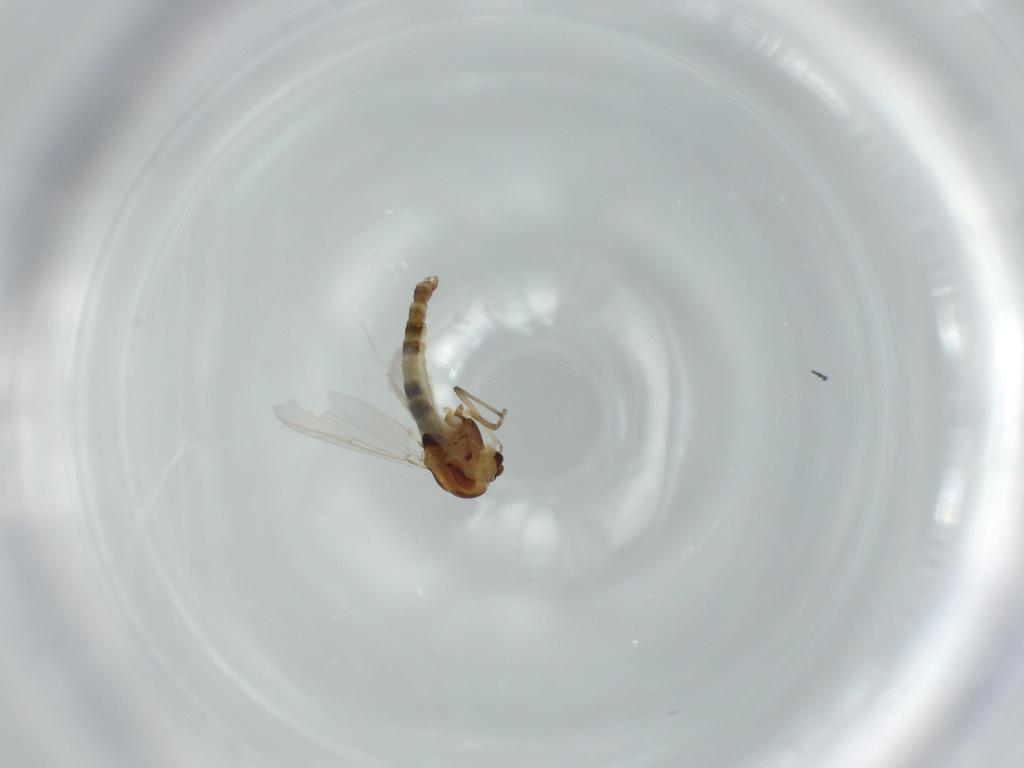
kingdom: Animalia
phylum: Arthropoda
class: Insecta
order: Diptera
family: Chironomidae
